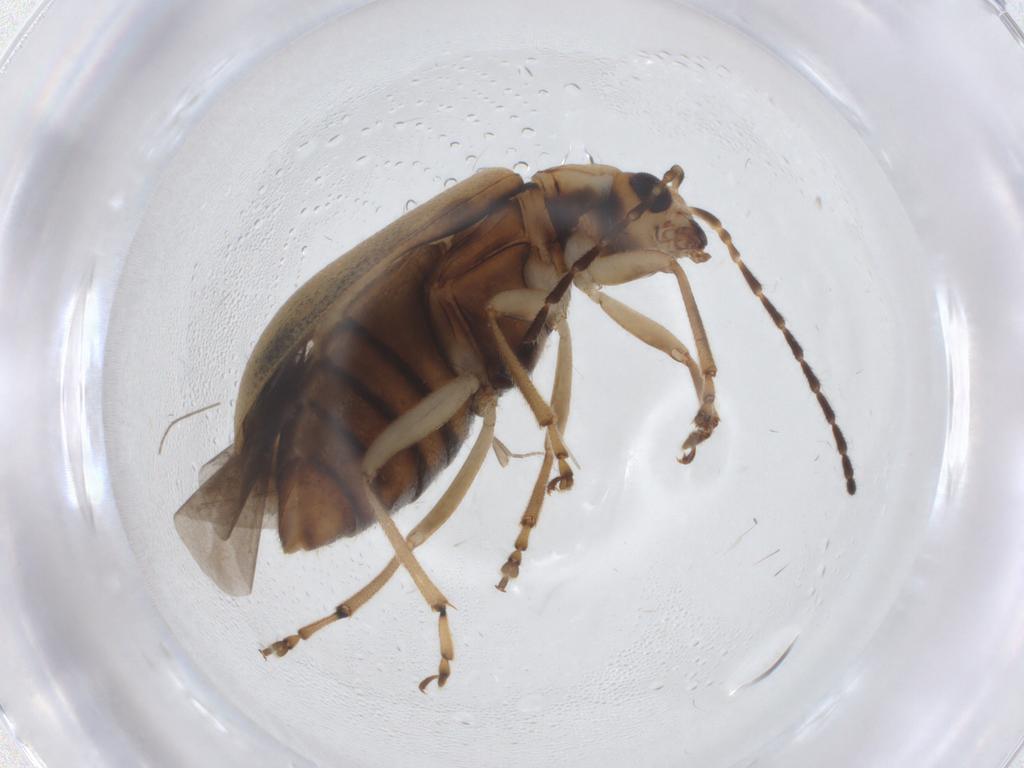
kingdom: Animalia
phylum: Arthropoda
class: Insecta
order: Coleoptera
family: Chrysomelidae
